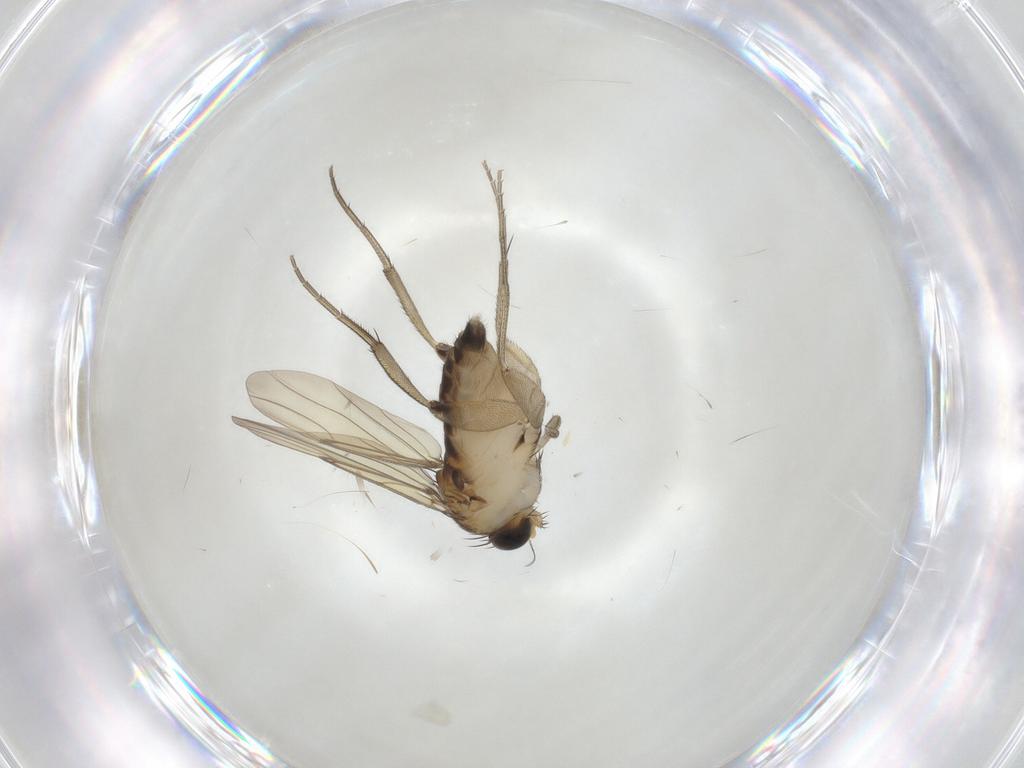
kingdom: Animalia
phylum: Arthropoda
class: Insecta
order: Diptera
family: Phoridae
